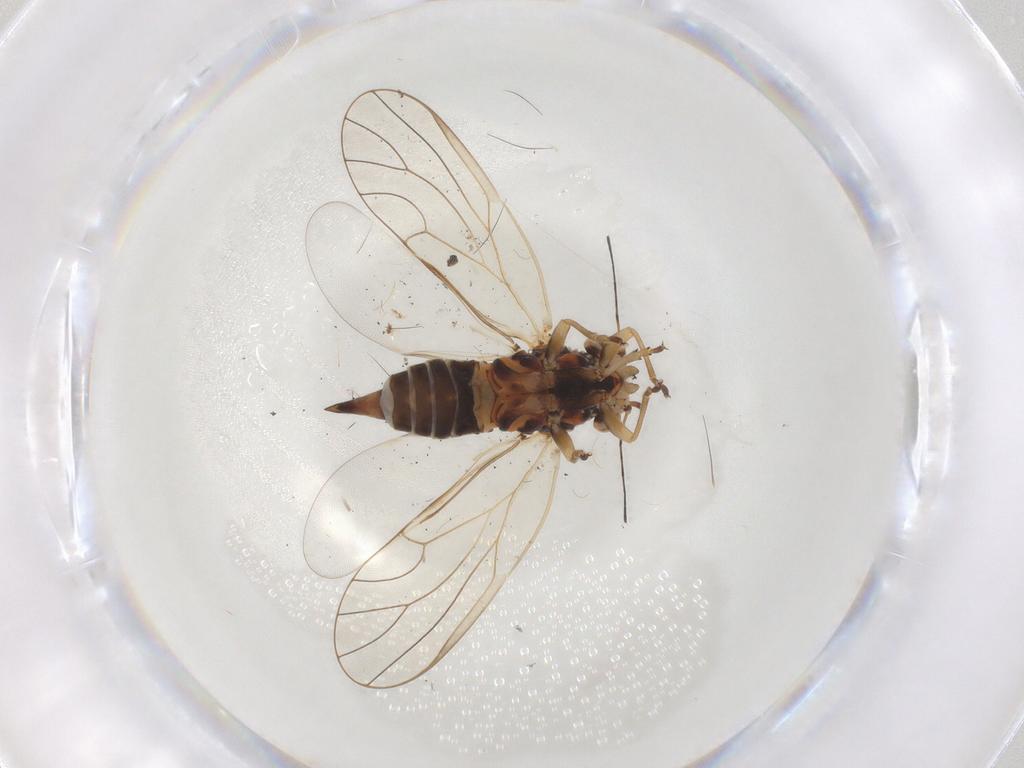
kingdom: Animalia
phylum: Arthropoda
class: Insecta
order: Hemiptera
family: Psyllidae
